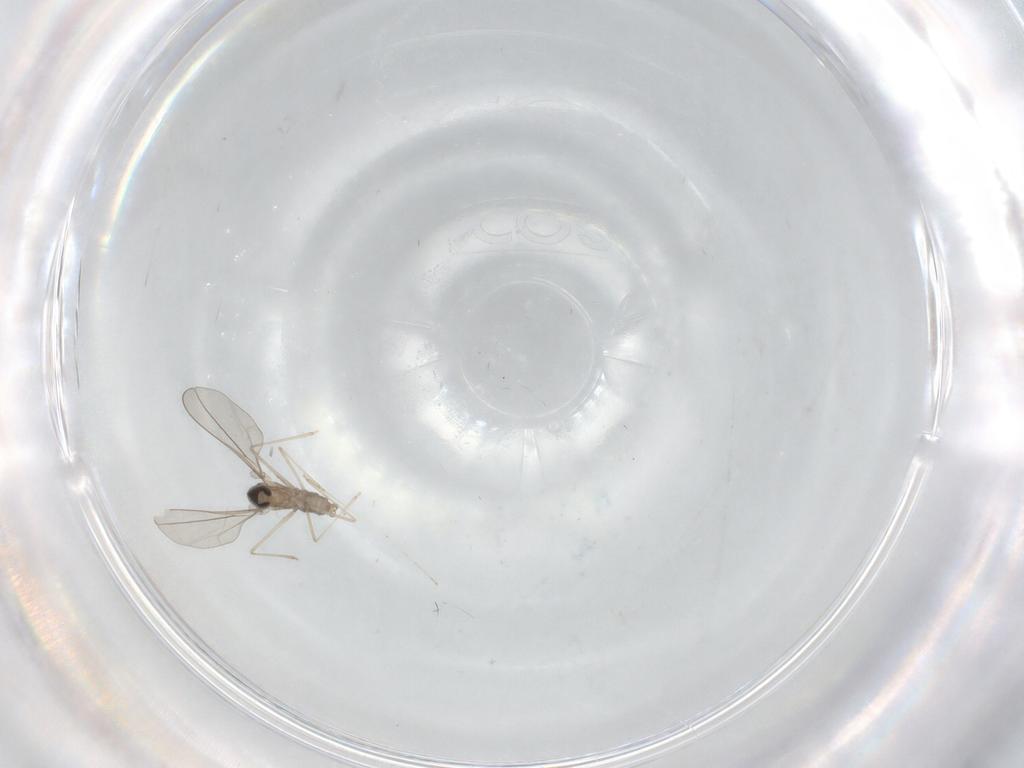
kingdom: Animalia
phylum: Arthropoda
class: Insecta
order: Diptera
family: Cecidomyiidae
